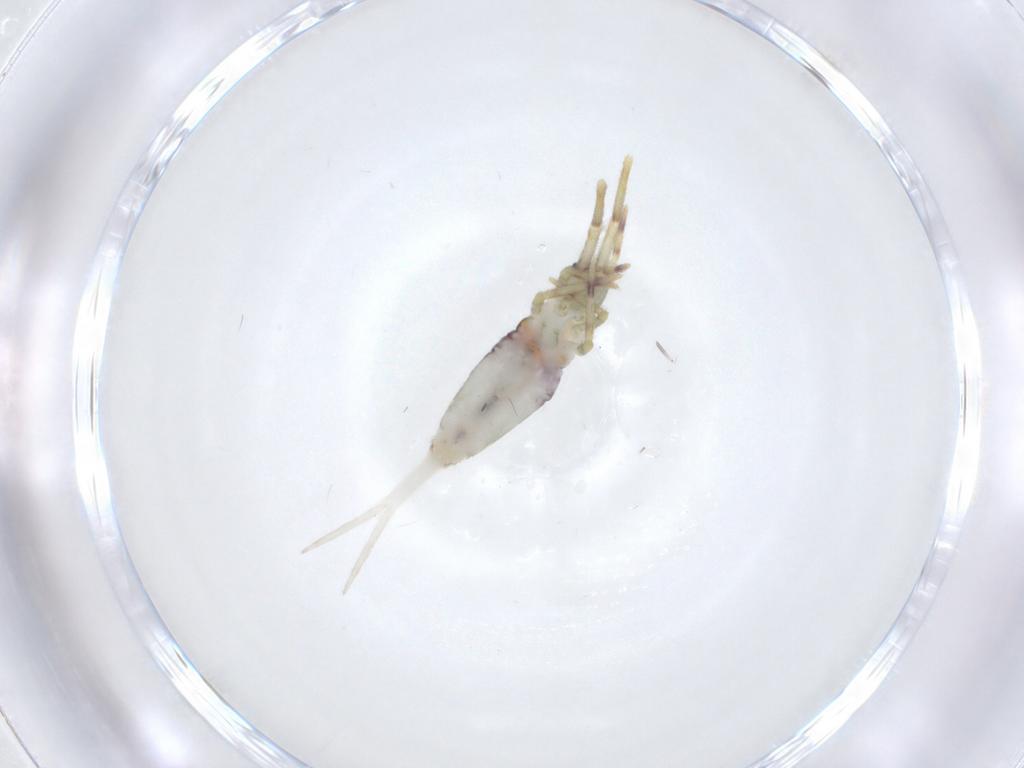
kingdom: Animalia
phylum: Arthropoda
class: Collembola
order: Entomobryomorpha
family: Entomobryidae
